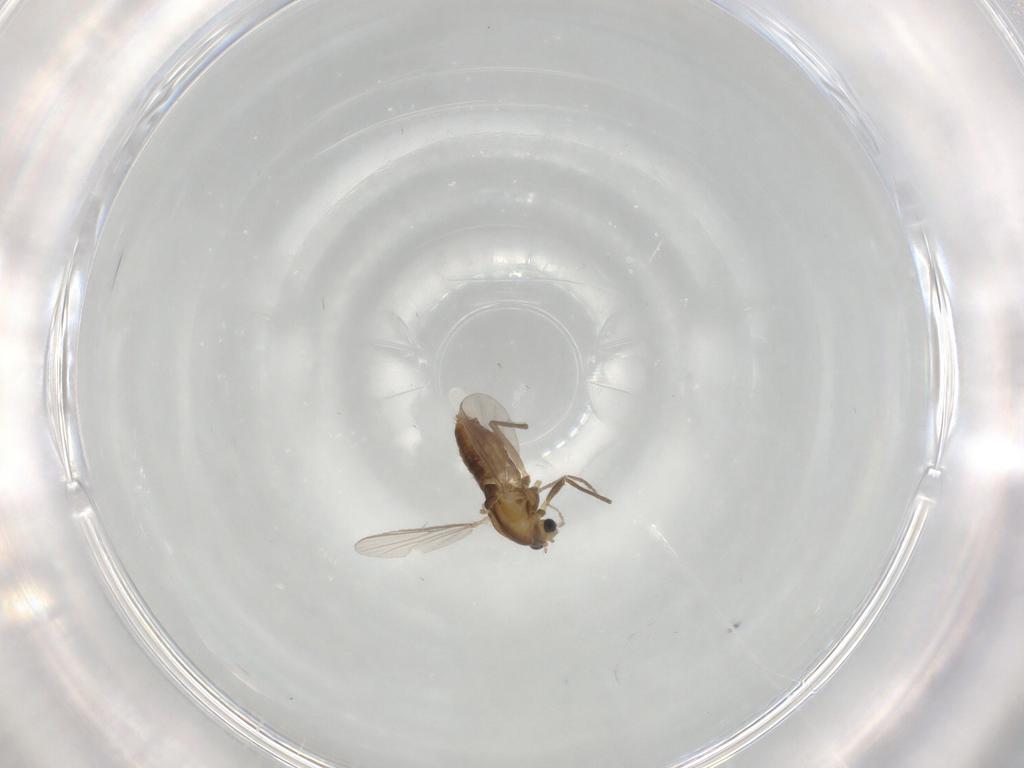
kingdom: Animalia
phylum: Arthropoda
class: Insecta
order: Diptera
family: Chironomidae
